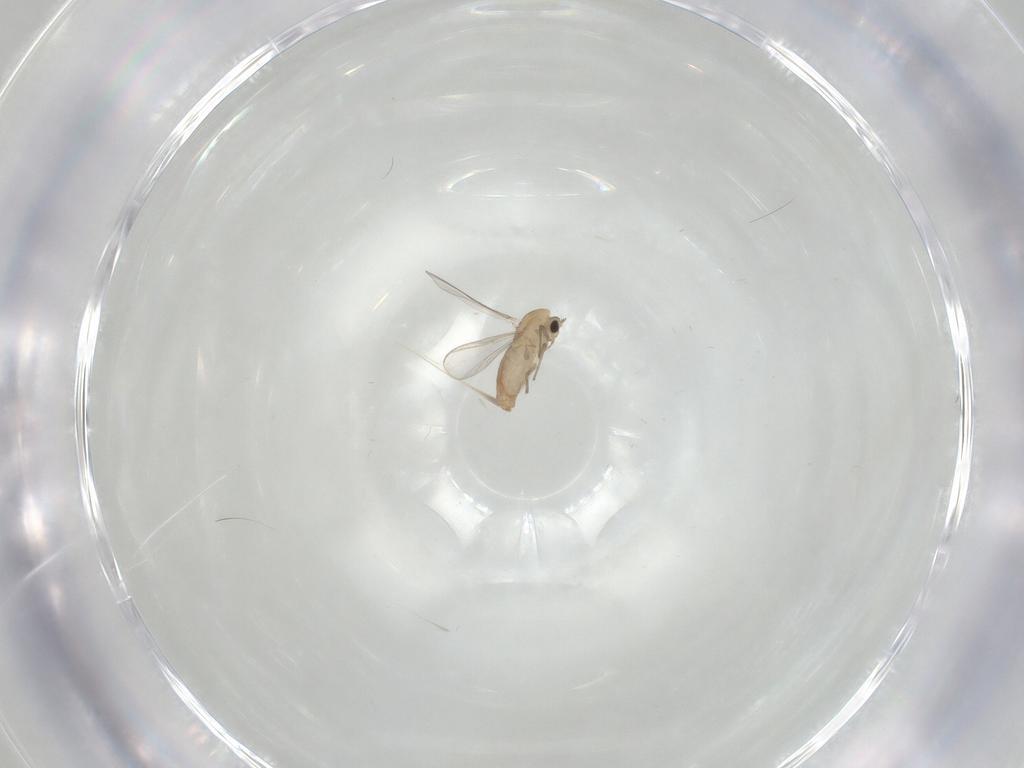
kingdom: Animalia
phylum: Arthropoda
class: Insecta
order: Diptera
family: Chironomidae
